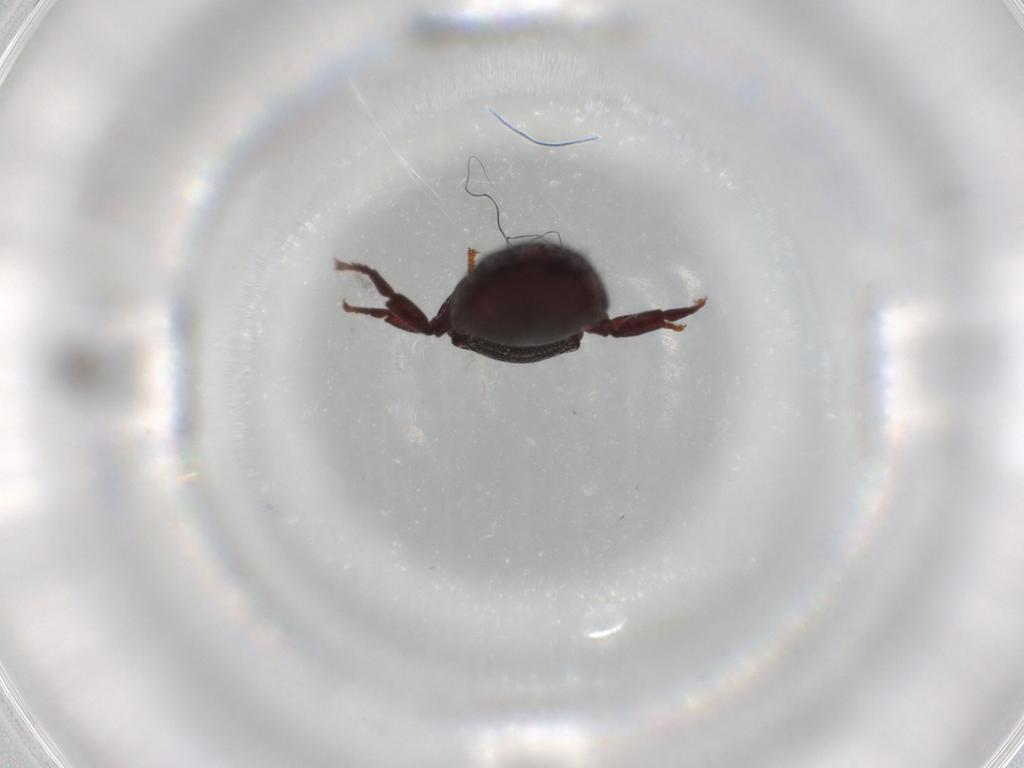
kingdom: Animalia
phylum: Arthropoda
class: Insecta
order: Hymenoptera
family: Formicidae
